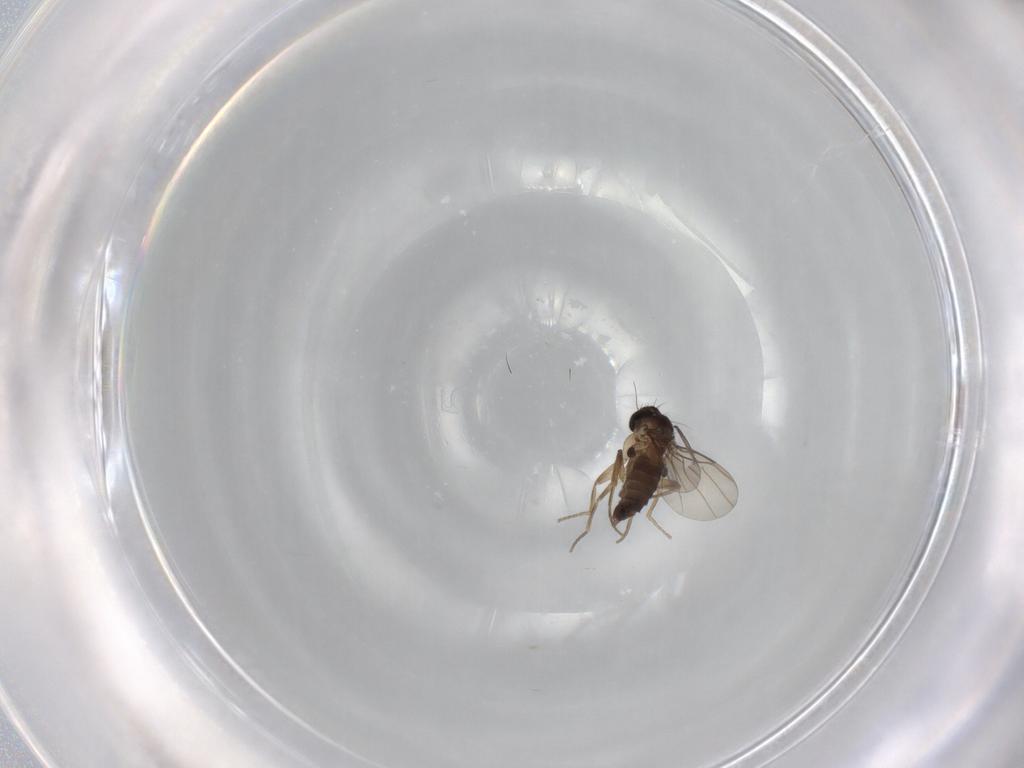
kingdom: Animalia
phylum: Arthropoda
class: Insecta
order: Diptera
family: Phoridae
